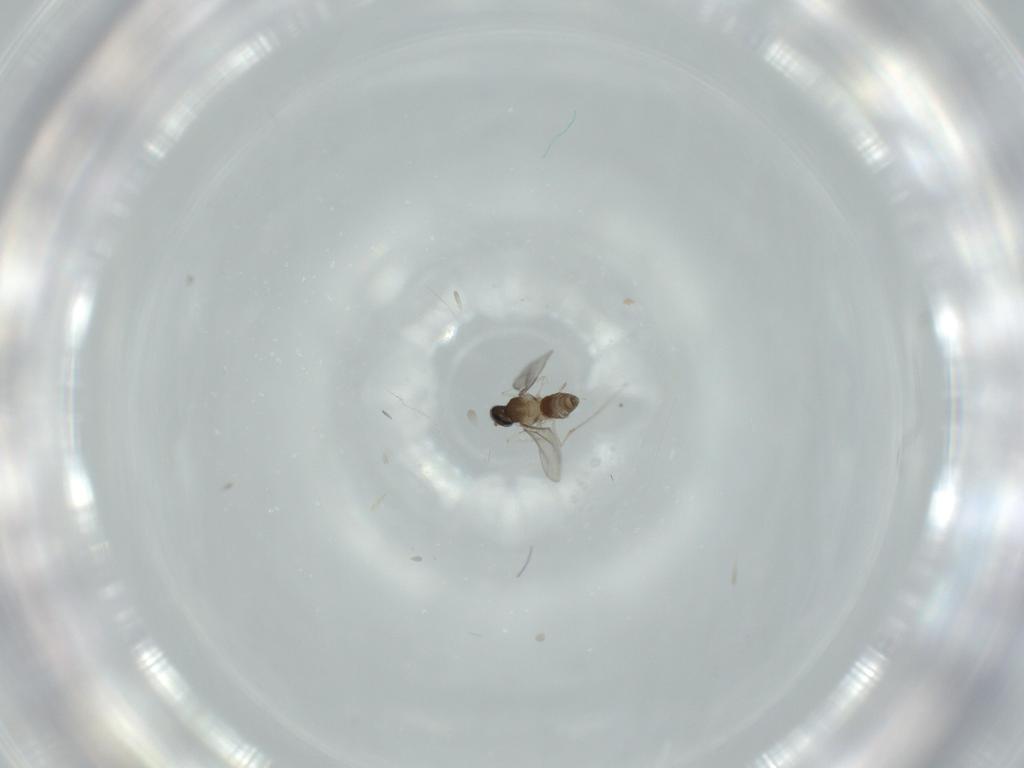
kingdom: Animalia
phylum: Arthropoda
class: Insecta
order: Diptera
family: Cecidomyiidae
